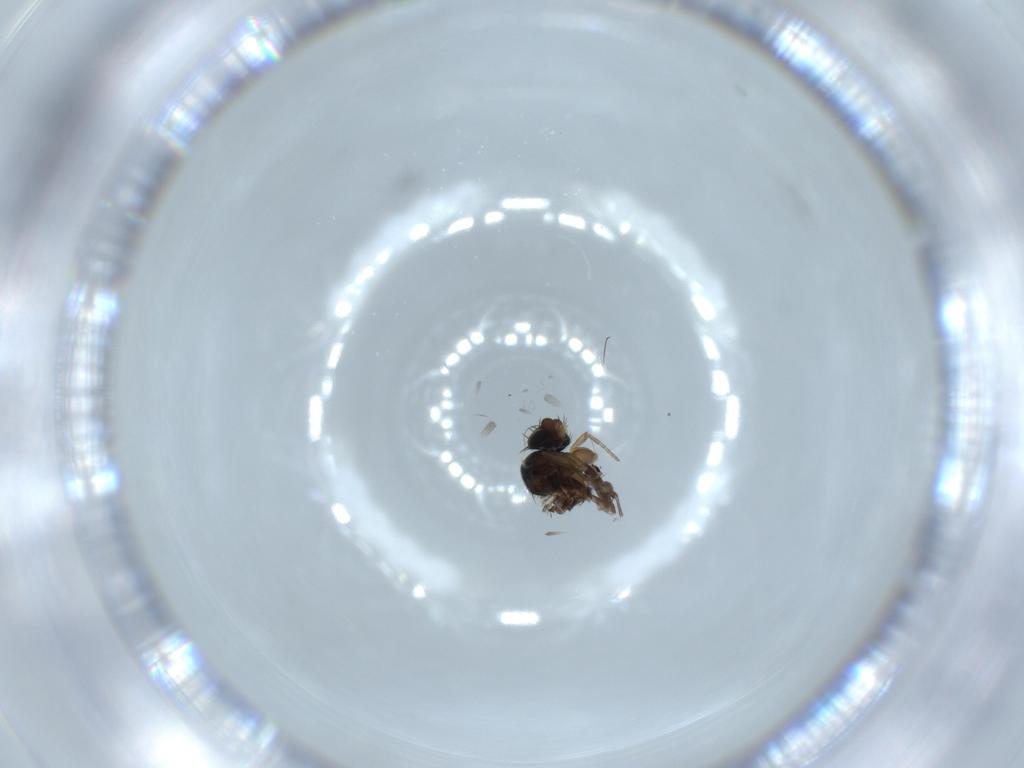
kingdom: Animalia
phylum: Arthropoda
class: Insecta
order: Diptera
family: Phoridae
